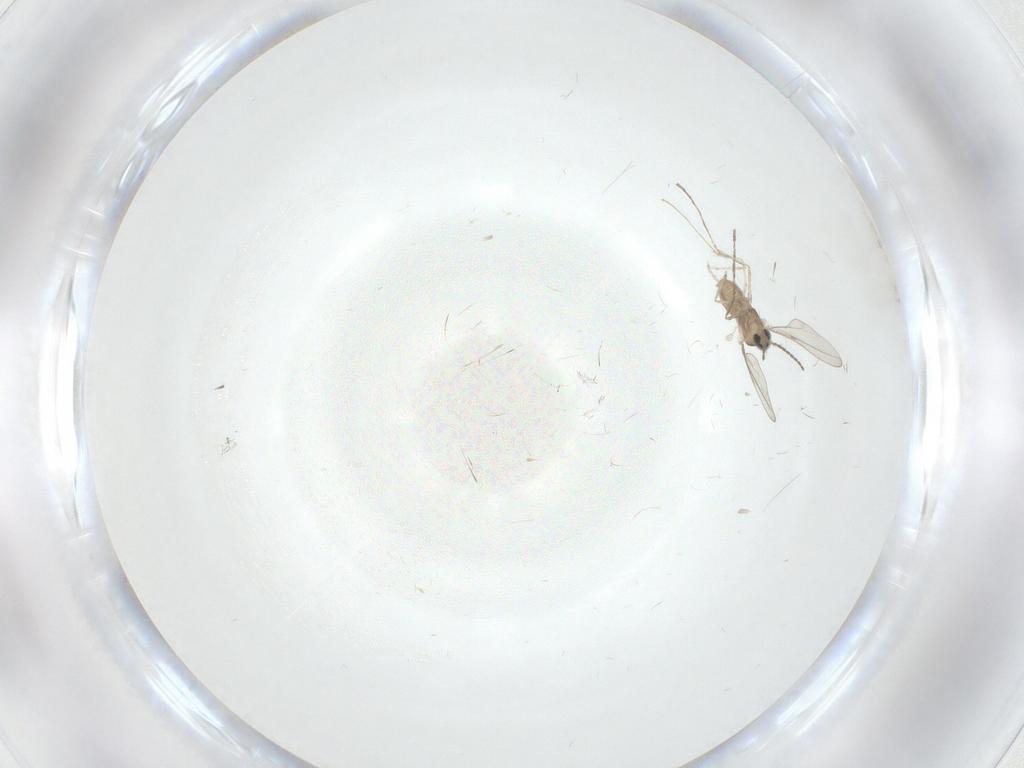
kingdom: Animalia
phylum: Arthropoda
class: Insecta
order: Diptera
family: Cecidomyiidae
